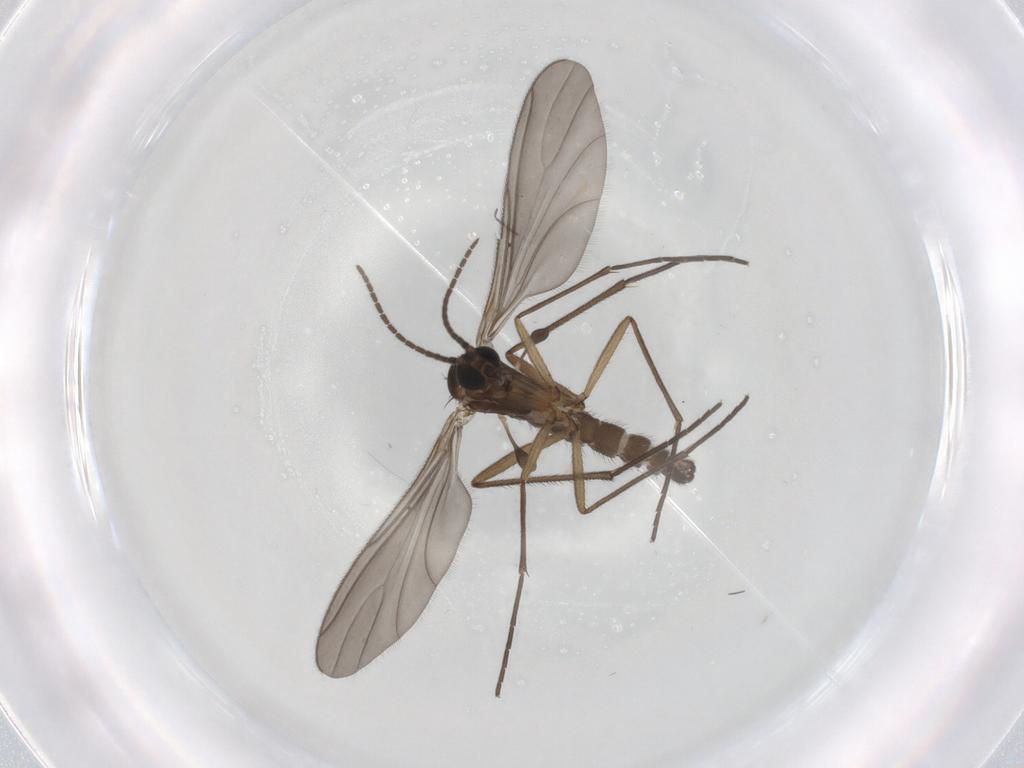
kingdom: Animalia
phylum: Arthropoda
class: Insecta
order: Diptera
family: Sciaridae
